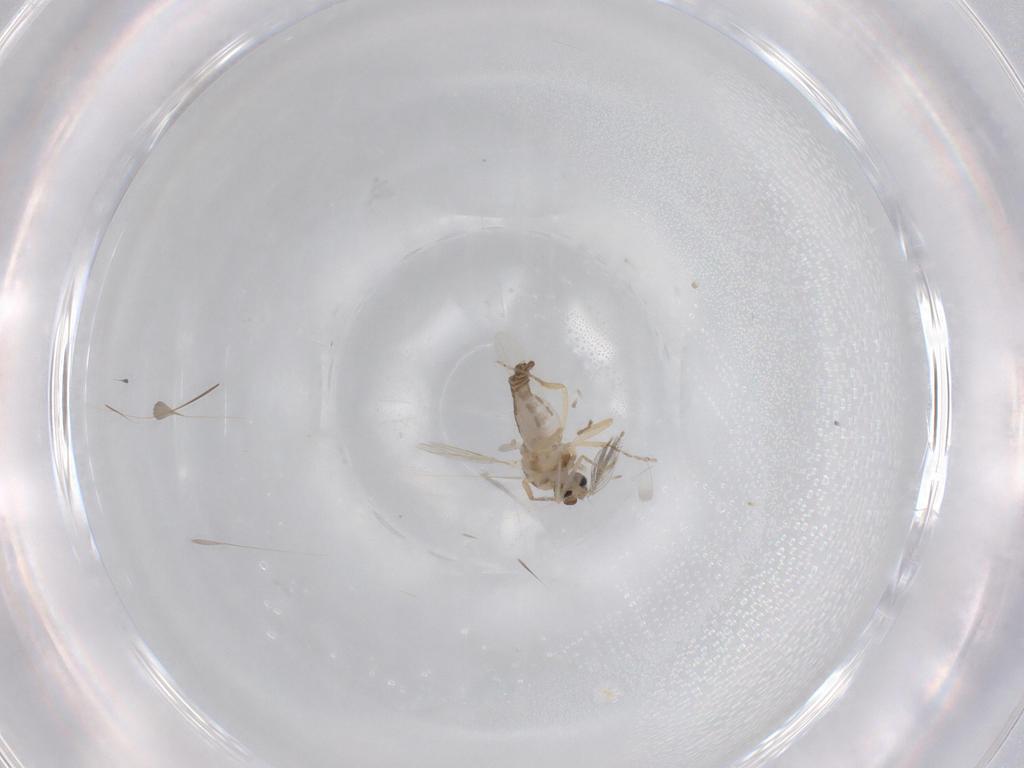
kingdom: Animalia
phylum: Arthropoda
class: Insecta
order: Diptera
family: Ceratopogonidae
